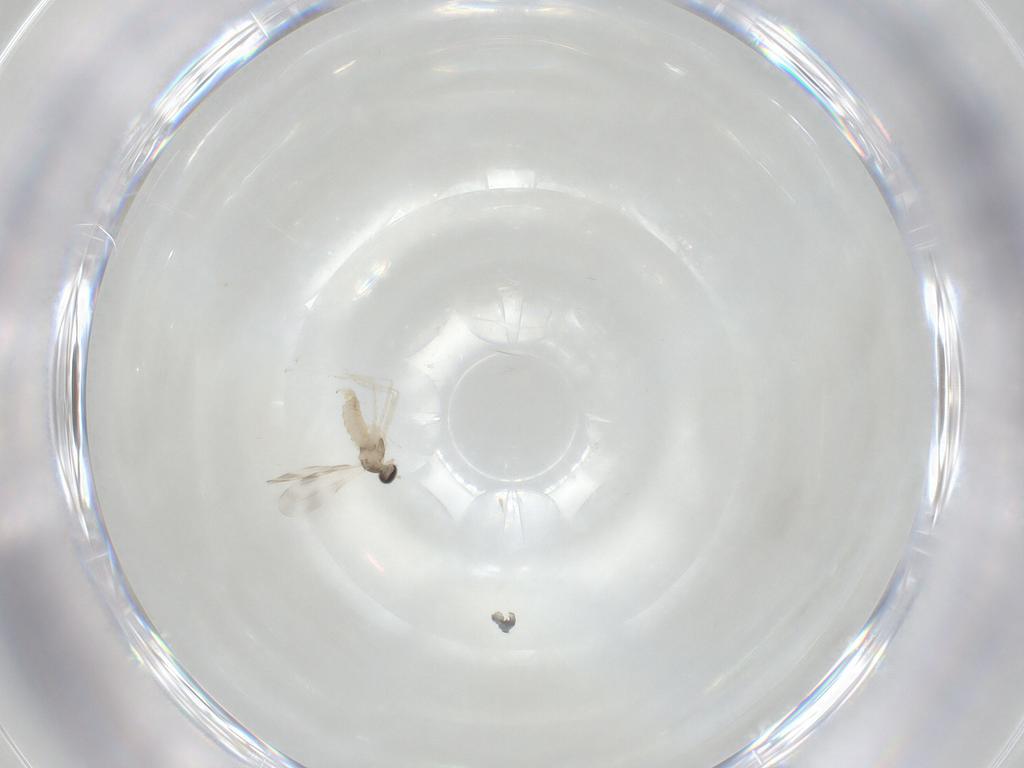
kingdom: Animalia
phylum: Arthropoda
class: Insecta
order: Diptera
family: Cecidomyiidae
